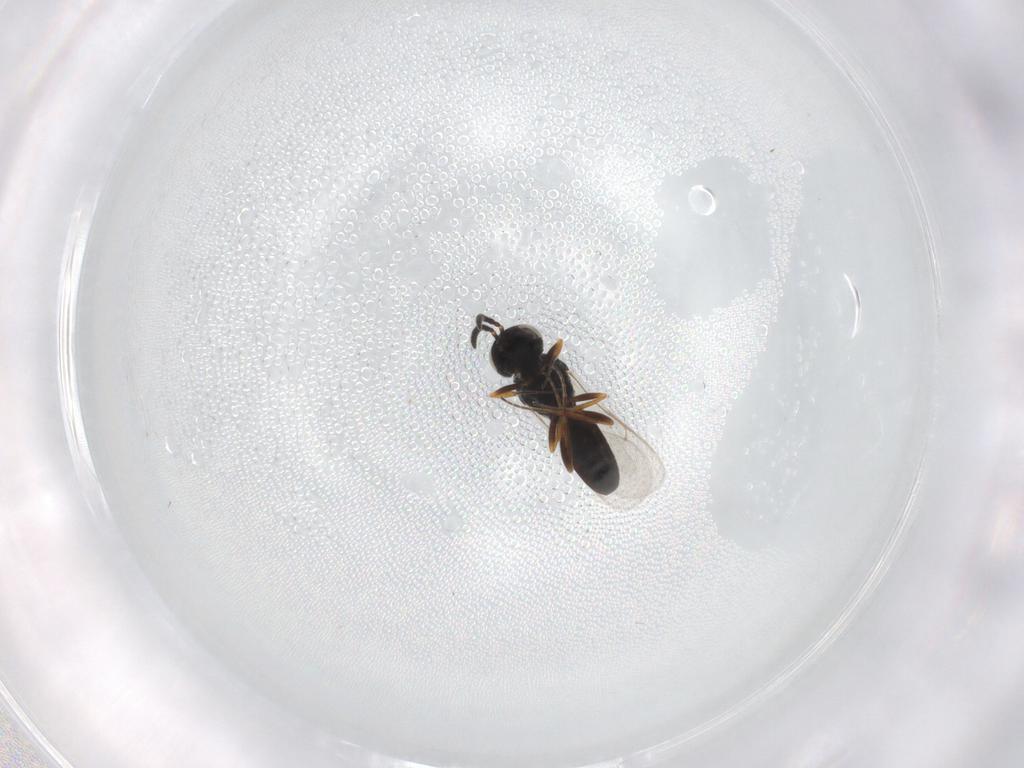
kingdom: Animalia
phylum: Arthropoda
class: Insecta
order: Hymenoptera
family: Scelionidae
